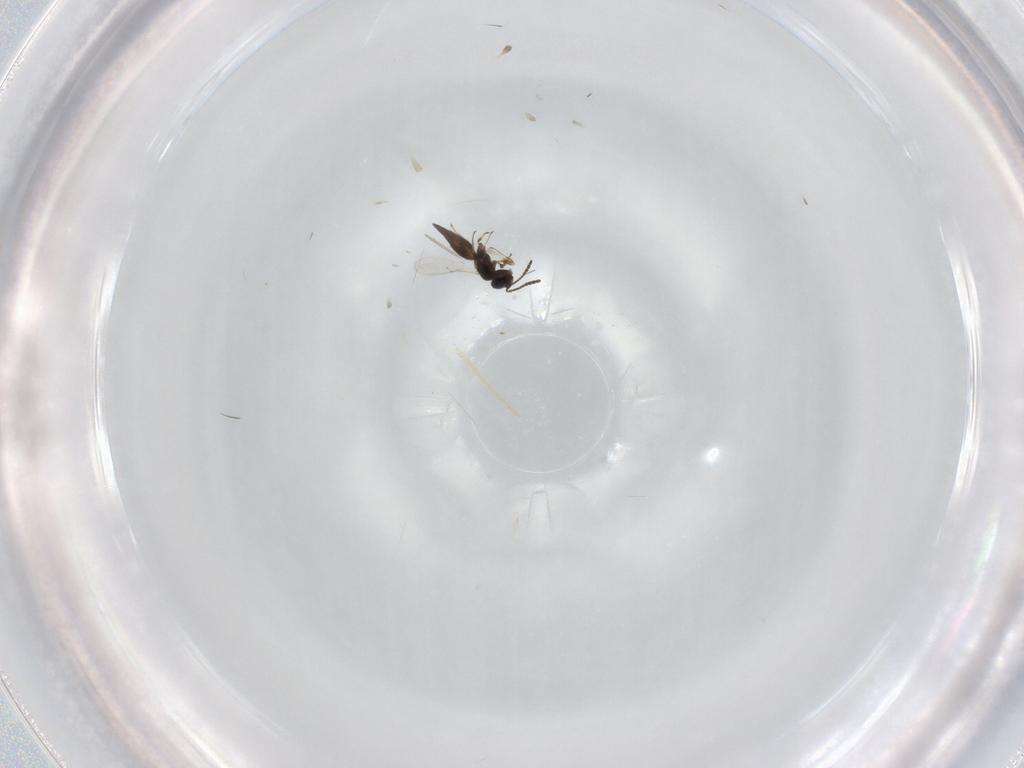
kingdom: Animalia
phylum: Arthropoda
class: Insecta
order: Hymenoptera
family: Scelionidae
